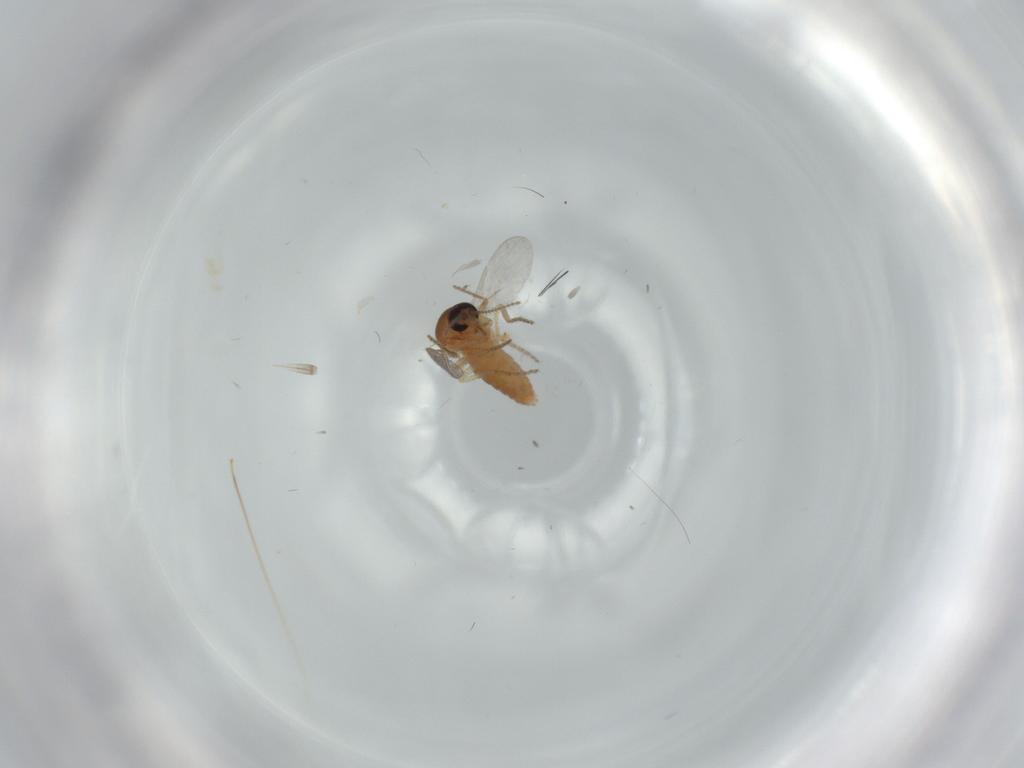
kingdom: Animalia
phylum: Arthropoda
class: Insecta
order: Diptera
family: Ceratopogonidae
